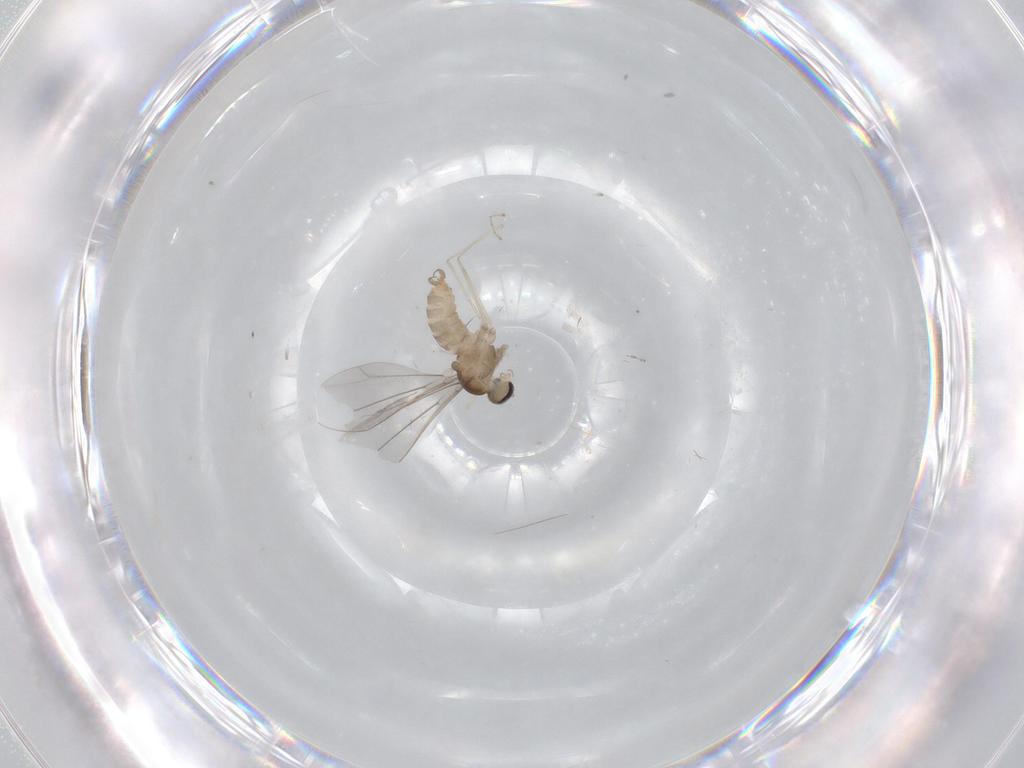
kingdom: Animalia
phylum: Arthropoda
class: Insecta
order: Diptera
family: Cecidomyiidae
